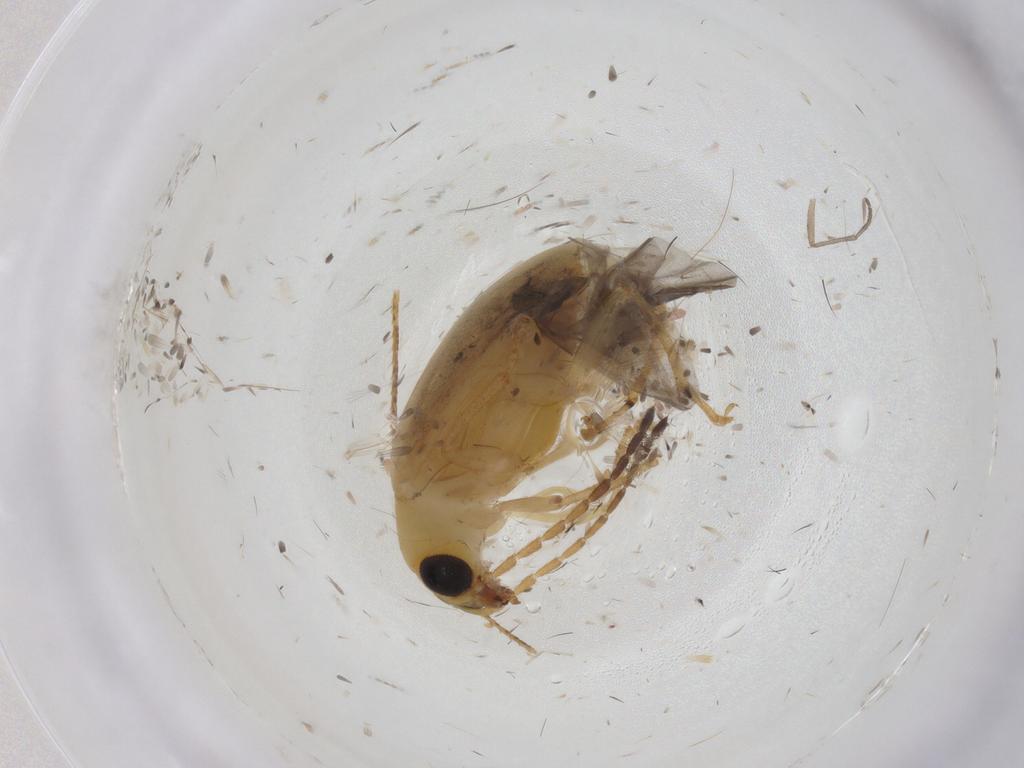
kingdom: Animalia
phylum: Arthropoda
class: Insecta
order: Coleoptera
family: Chrysomelidae
